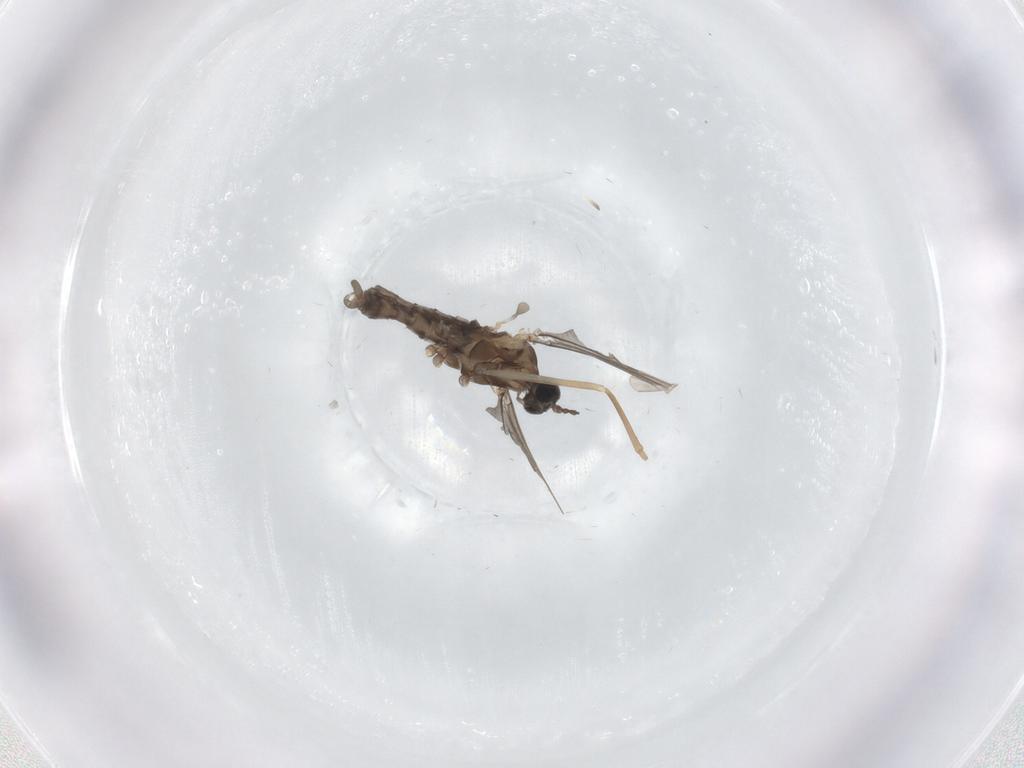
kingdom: Animalia
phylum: Arthropoda
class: Insecta
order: Diptera
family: Cecidomyiidae
